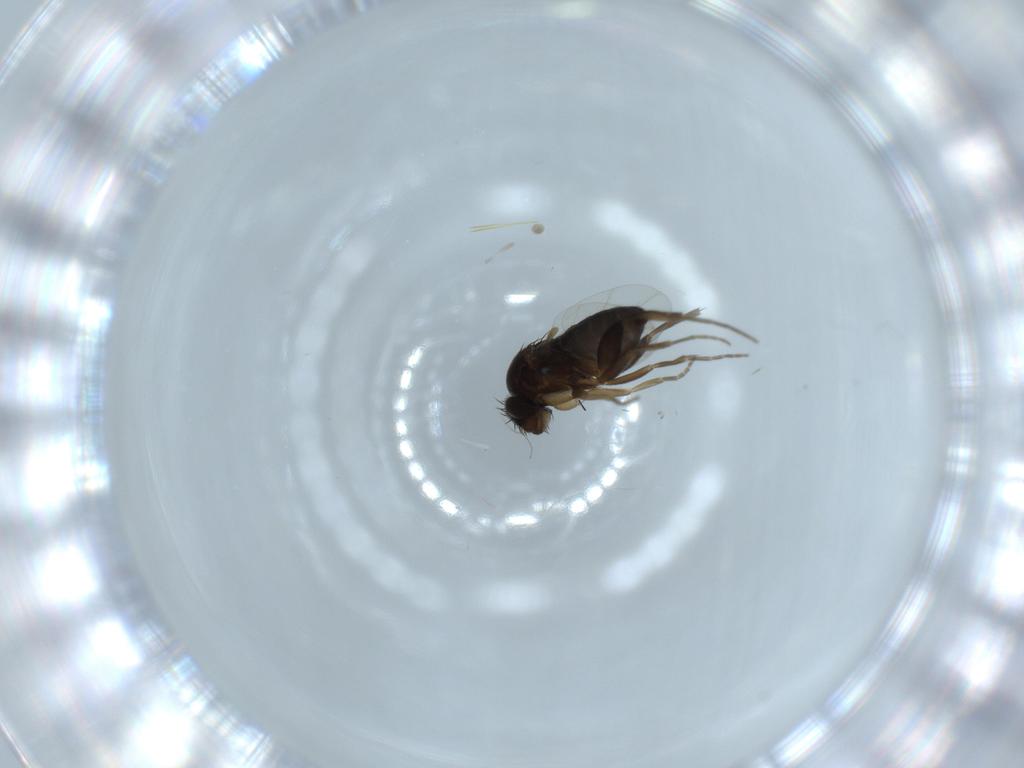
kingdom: Animalia
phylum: Arthropoda
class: Insecta
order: Diptera
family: Phoridae
